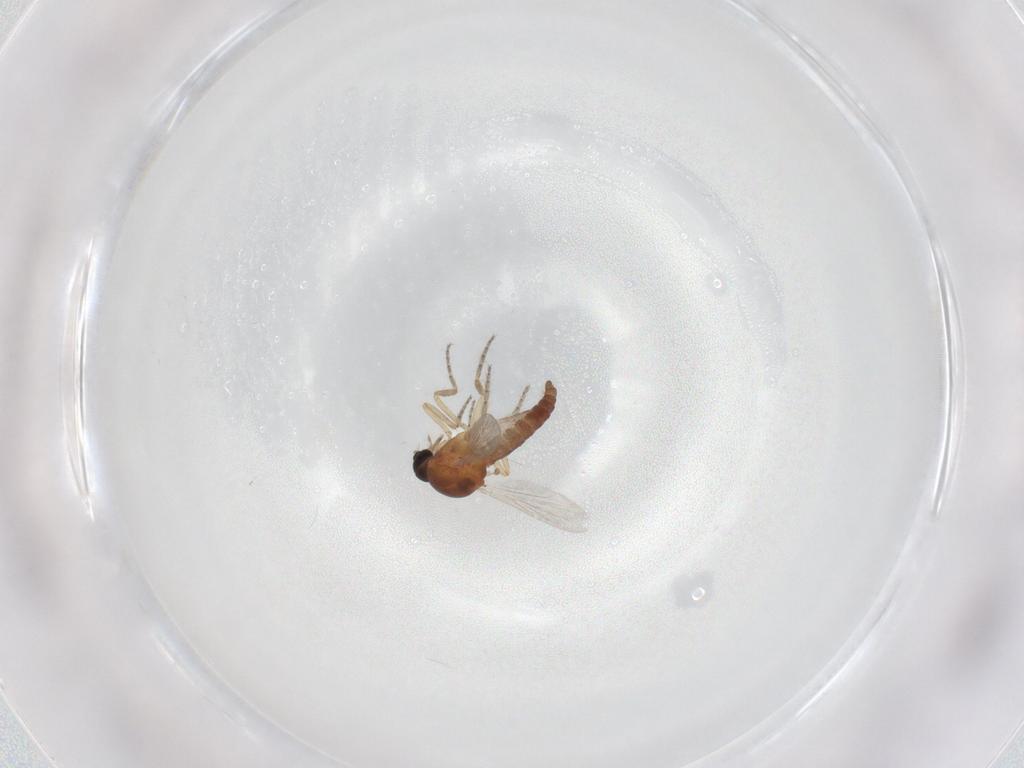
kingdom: Animalia
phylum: Arthropoda
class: Insecta
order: Diptera
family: Ceratopogonidae
